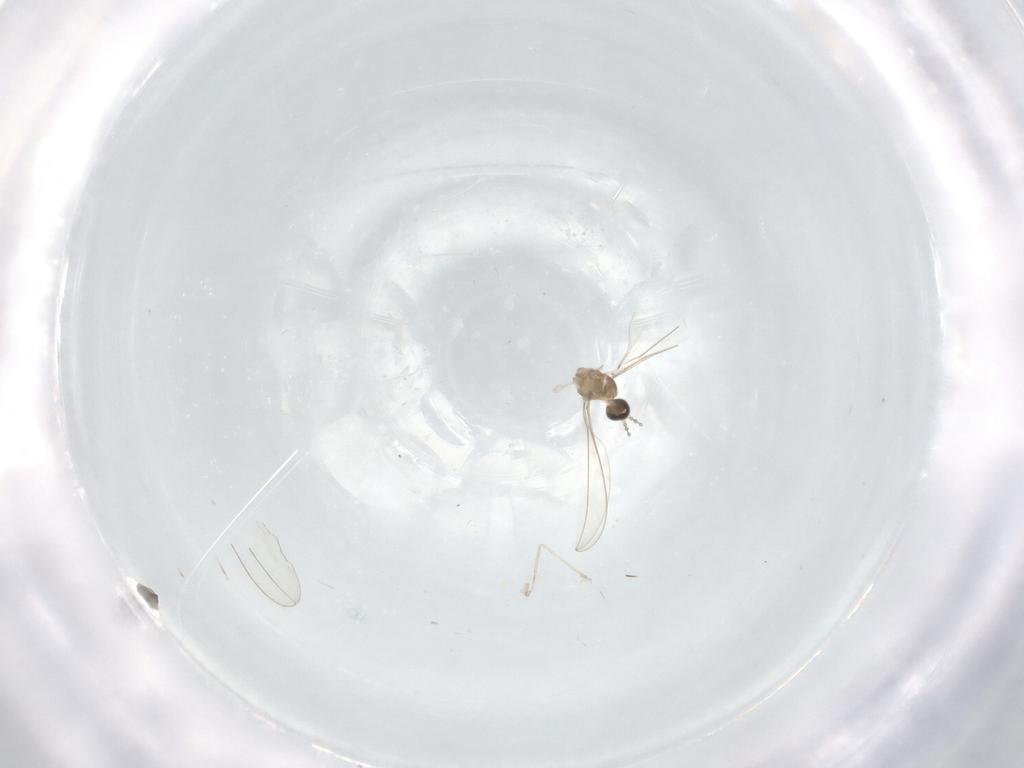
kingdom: Animalia
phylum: Arthropoda
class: Insecta
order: Diptera
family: Cecidomyiidae
